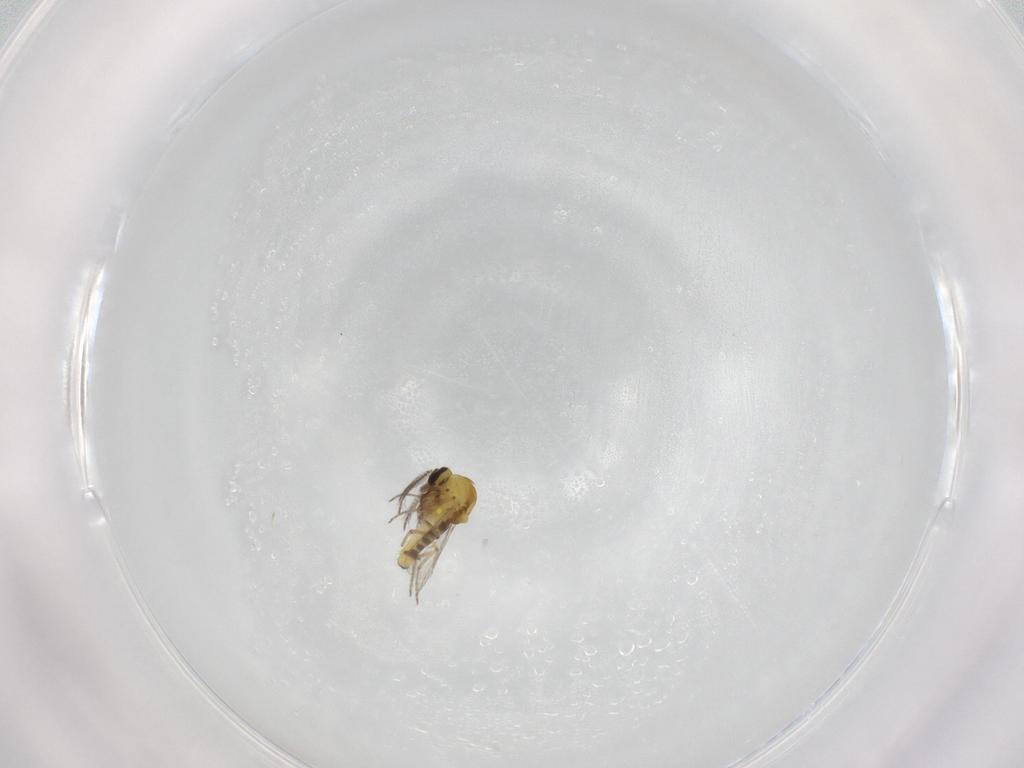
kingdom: Animalia
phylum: Arthropoda
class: Insecta
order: Diptera
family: Ceratopogonidae
